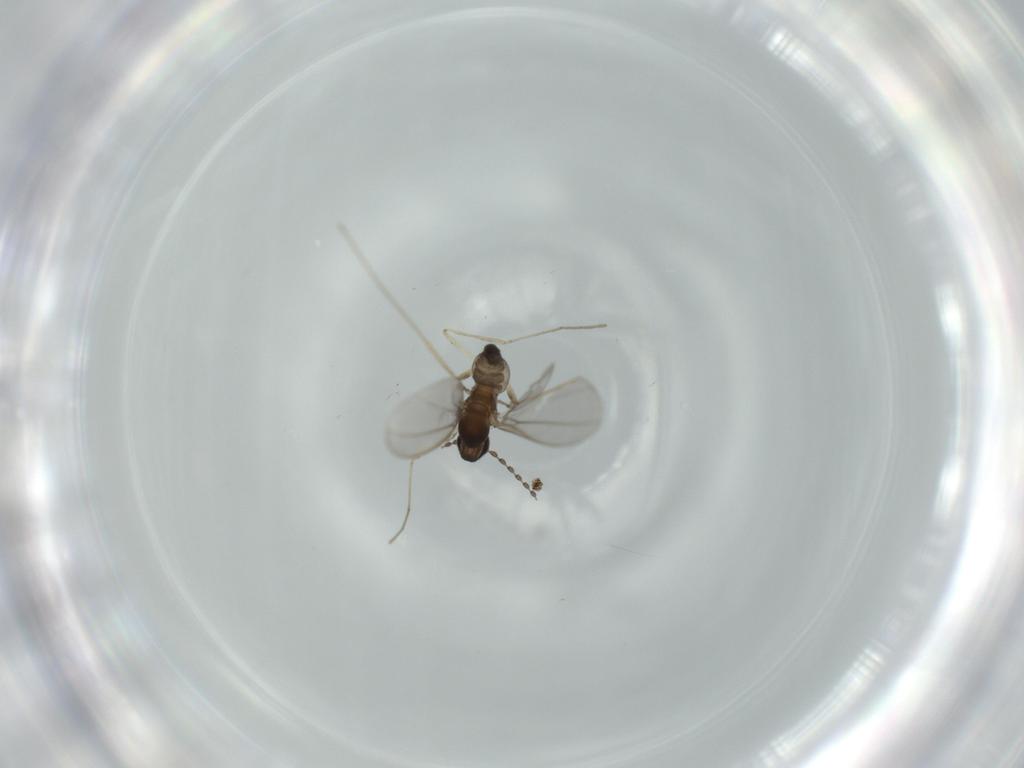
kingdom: Animalia
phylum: Arthropoda
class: Insecta
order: Diptera
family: Cecidomyiidae
